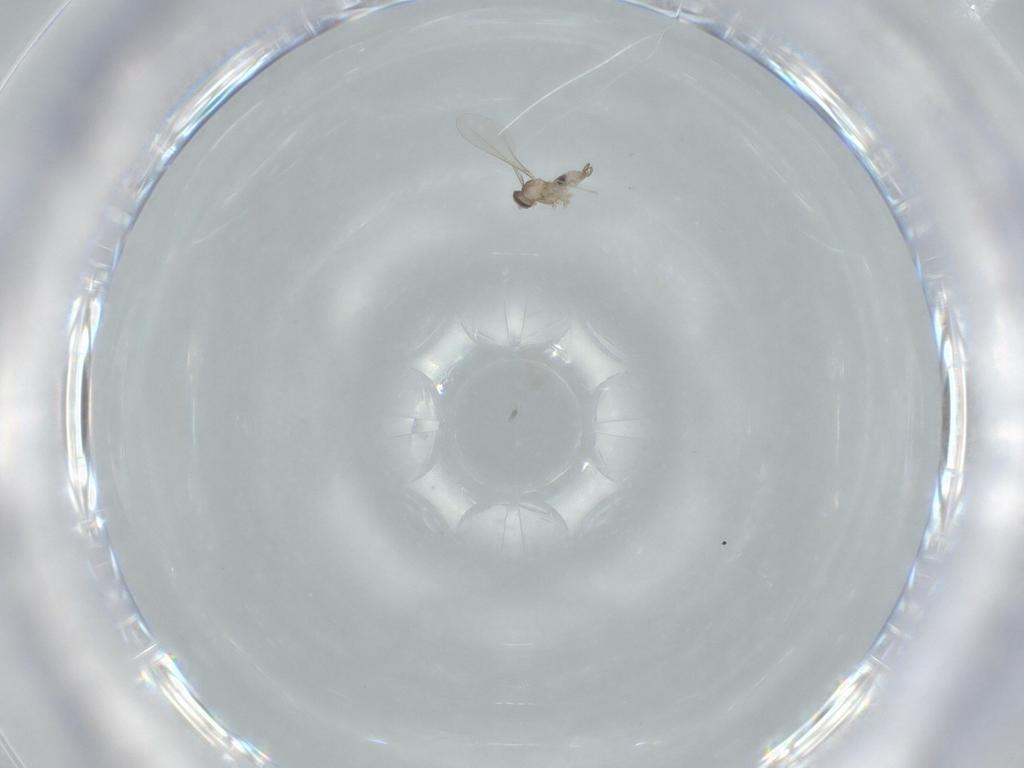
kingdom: Animalia
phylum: Arthropoda
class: Insecta
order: Diptera
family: Cecidomyiidae
